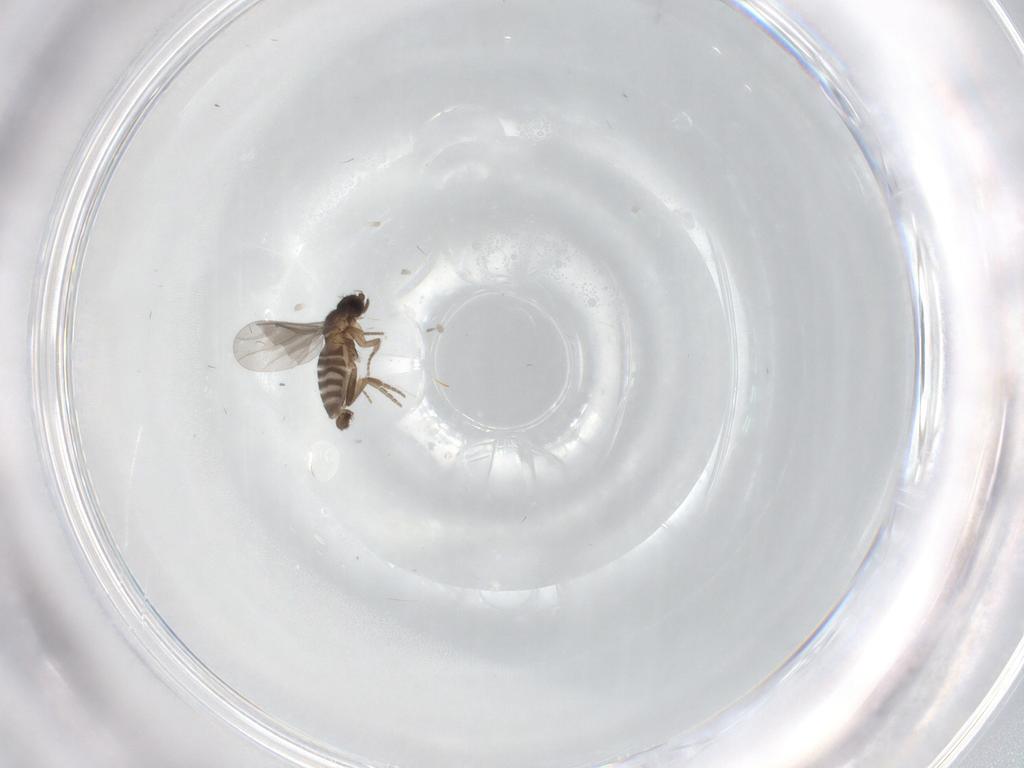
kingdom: Animalia
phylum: Arthropoda
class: Insecta
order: Diptera
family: Phoridae
